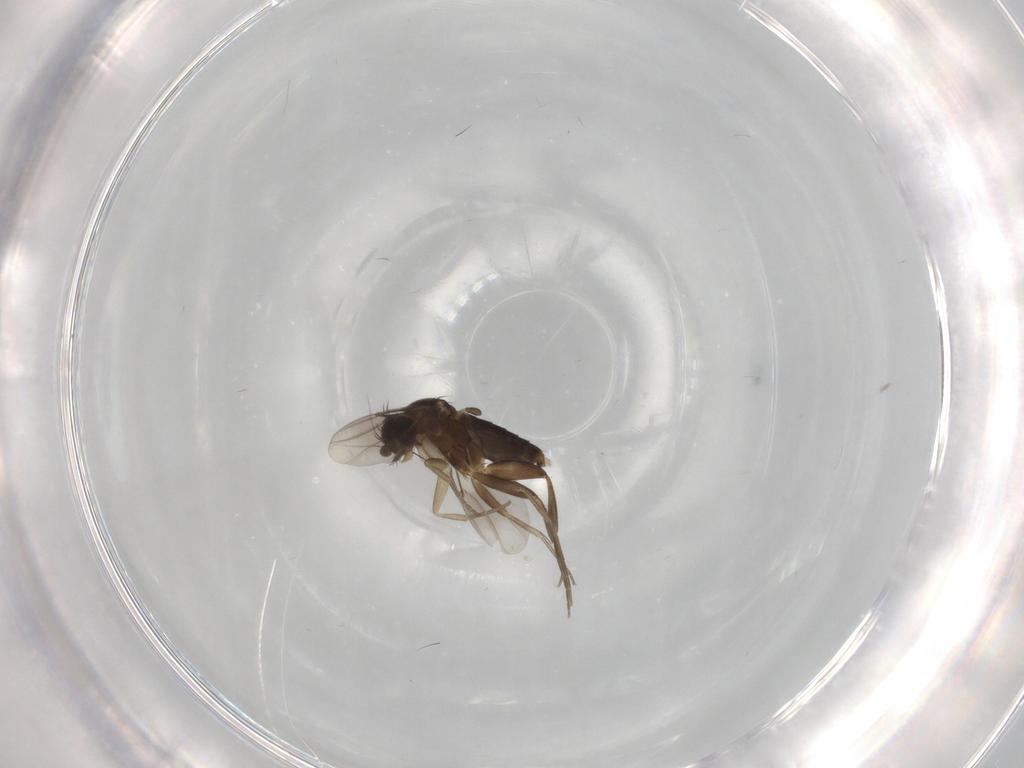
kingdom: Animalia
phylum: Arthropoda
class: Insecta
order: Diptera
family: Phoridae
